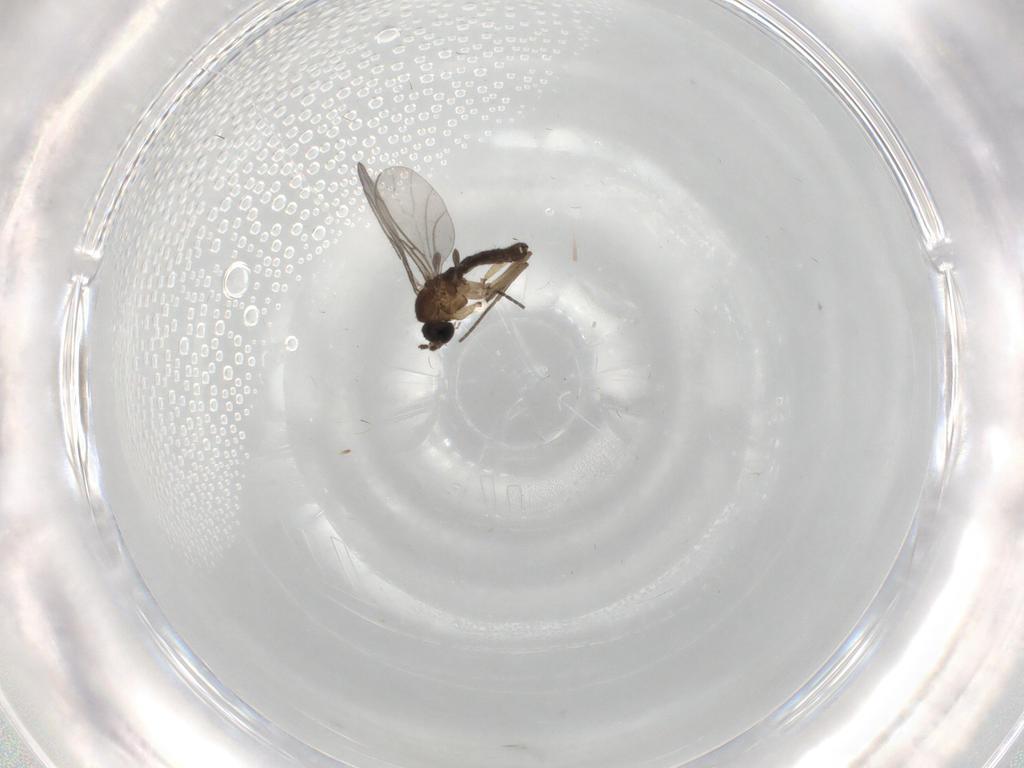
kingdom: Animalia
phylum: Arthropoda
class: Insecta
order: Diptera
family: Sciaridae
